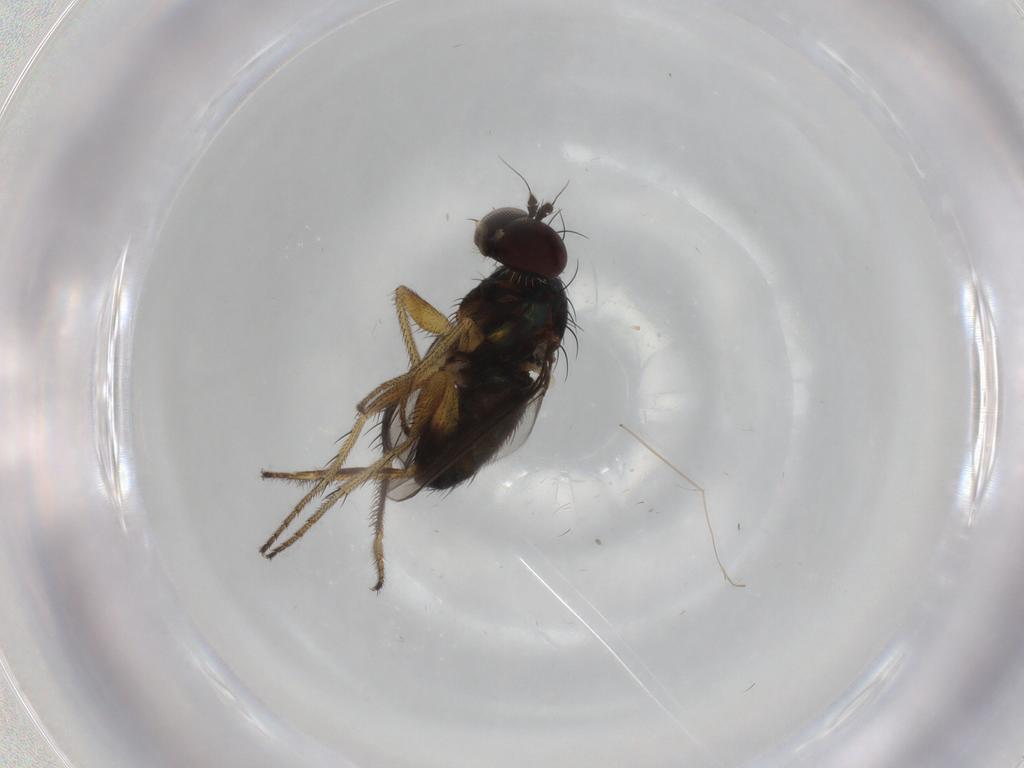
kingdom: Animalia
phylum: Arthropoda
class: Insecta
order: Diptera
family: Dolichopodidae
